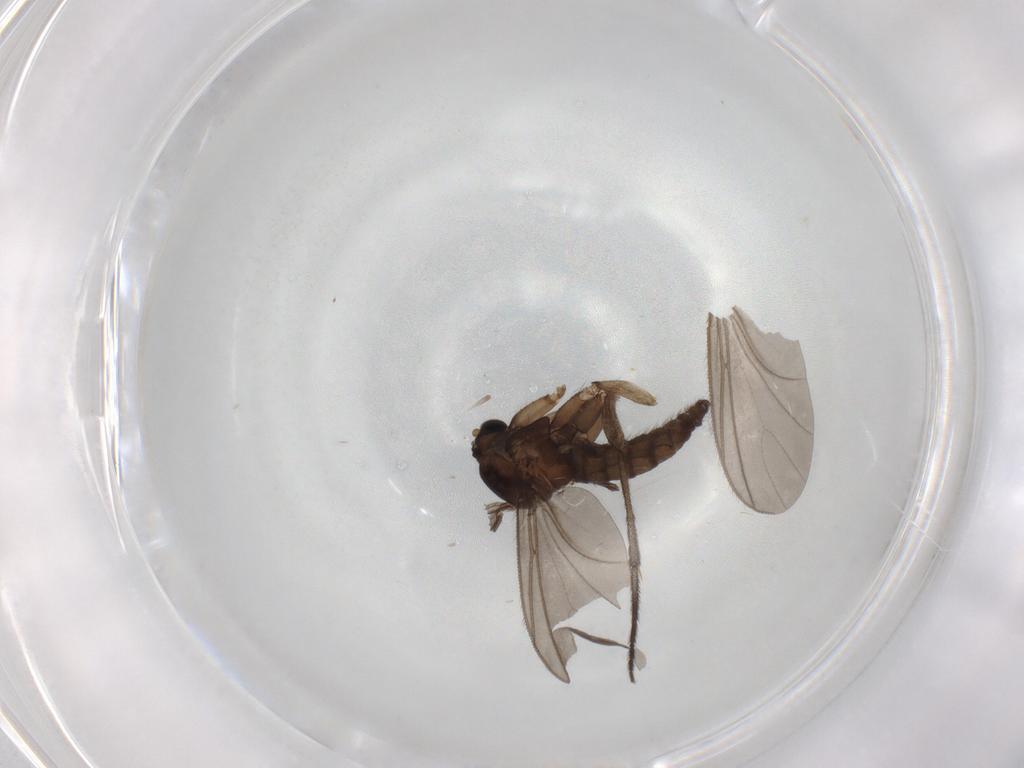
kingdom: Animalia
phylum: Arthropoda
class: Insecta
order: Diptera
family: Sciaridae
